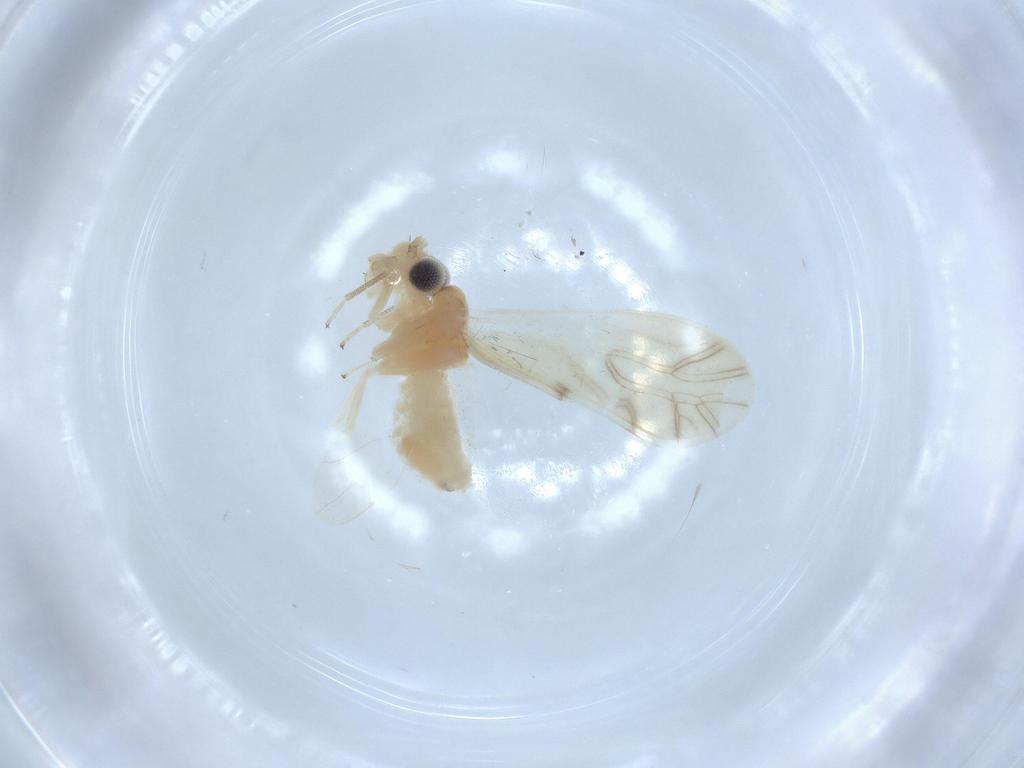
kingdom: Animalia
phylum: Arthropoda
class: Insecta
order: Psocodea
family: Caeciliusidae
